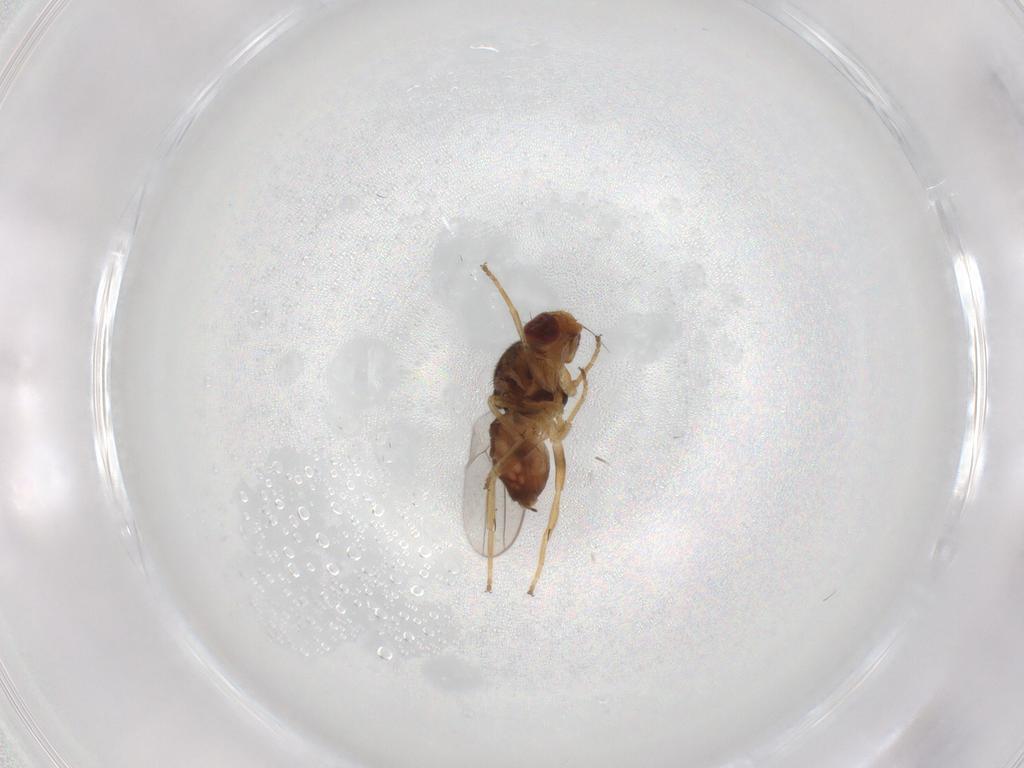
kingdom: Animalia
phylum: Arthropoda
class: Insecta
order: Diptera
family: Chloropidae
